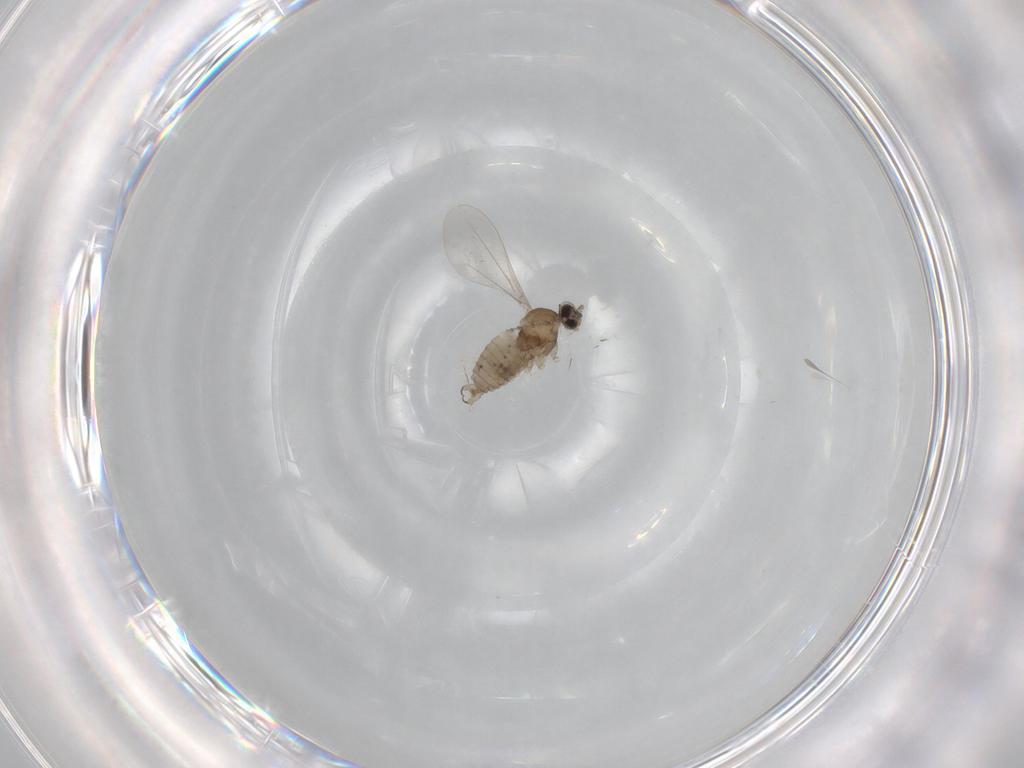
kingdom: Animalia
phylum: Arthropoda
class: Insecta
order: Diptera
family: Cecidomyiidae
